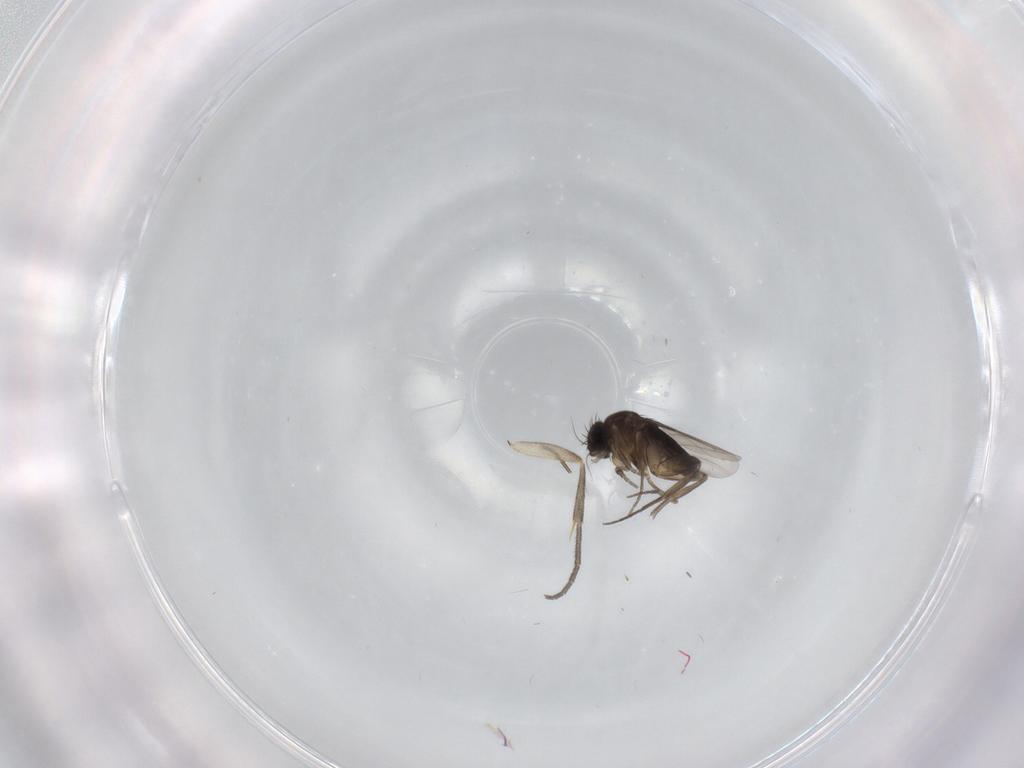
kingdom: Animalia
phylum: Arthropoda
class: Insecta
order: Diptera
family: Phoridae
